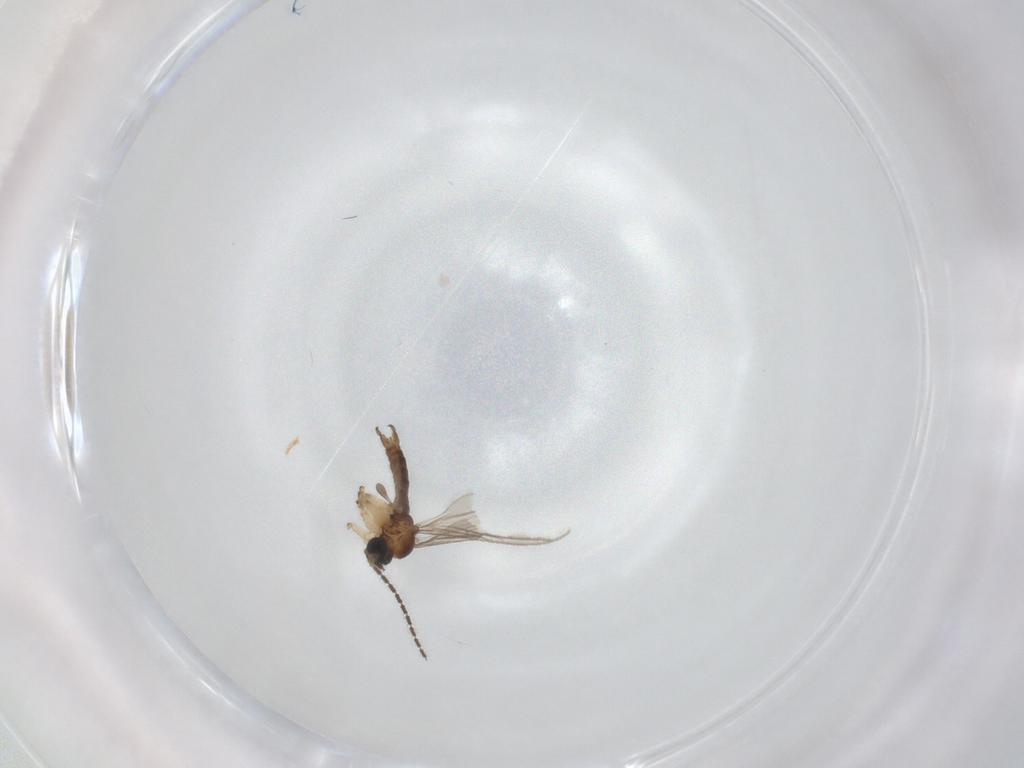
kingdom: Animalia
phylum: Arthropoda
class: Insecta
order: Diptera
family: Sciaridae
